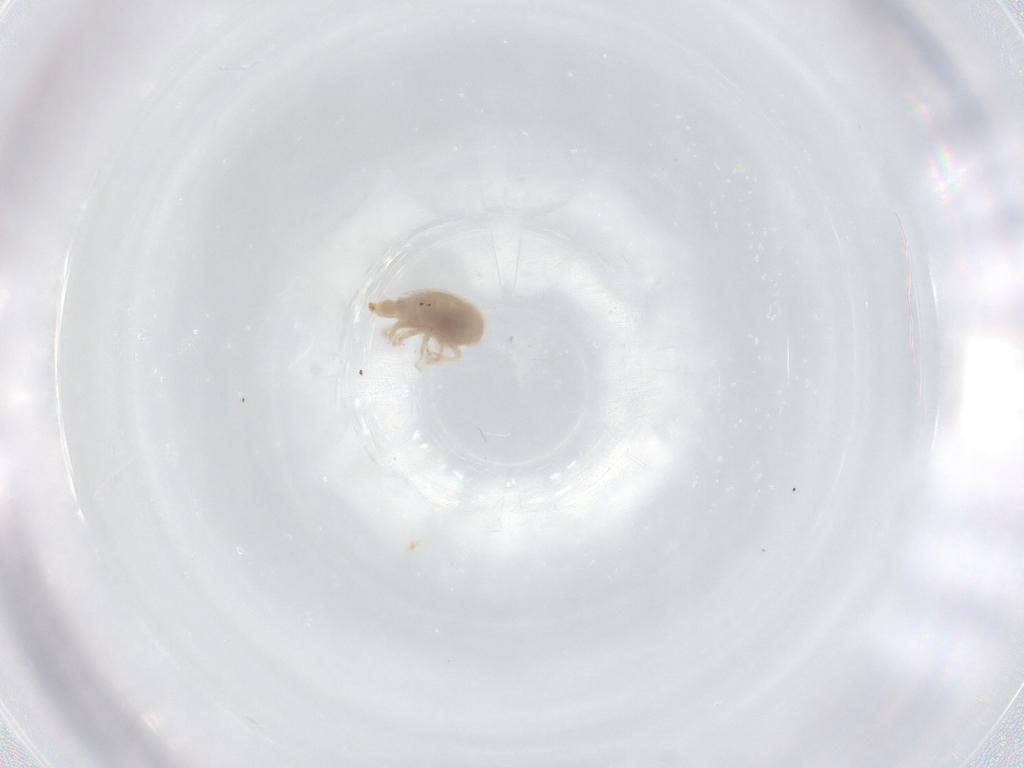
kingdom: Animalia
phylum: Arthropoda
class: Arachnida
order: Trombidiformes
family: Bdellidae
